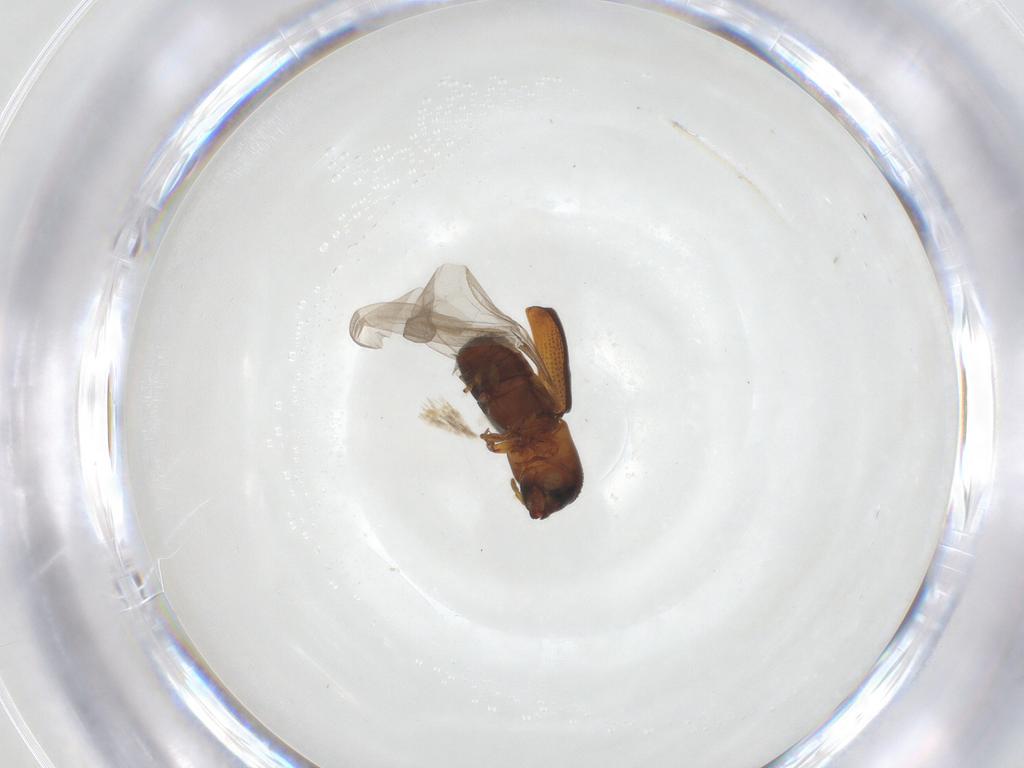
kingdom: Animalia
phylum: Arthropoda
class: Insecta
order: Coleoptera
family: Curculionidae
